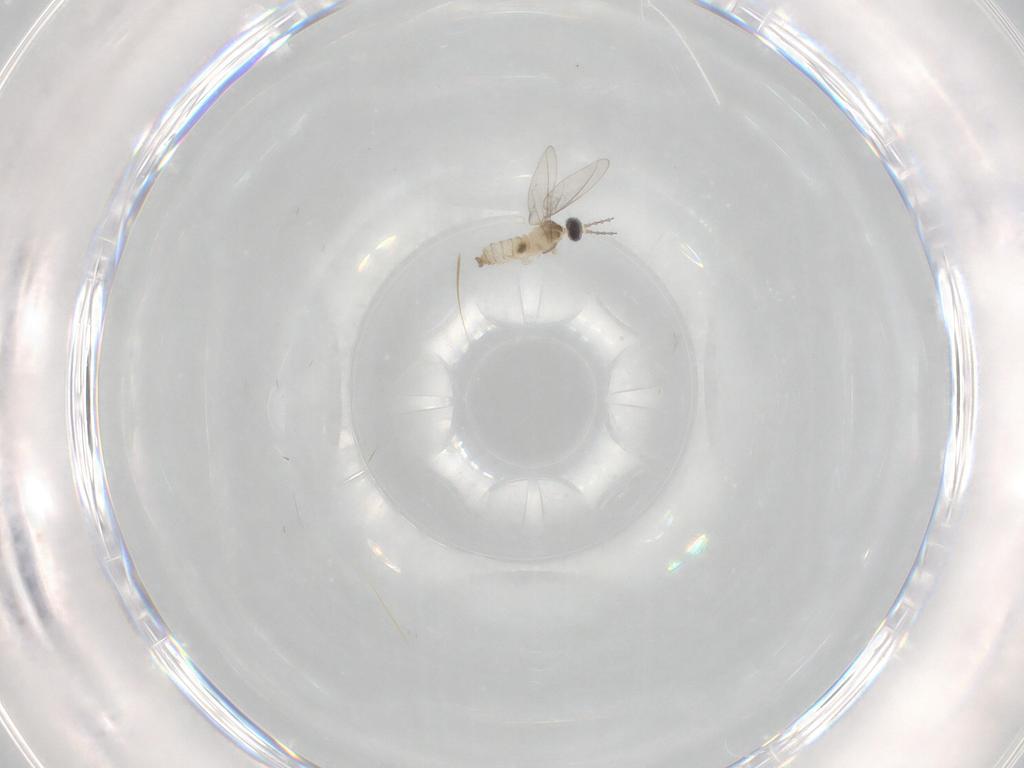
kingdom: Animalia
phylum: Arthropoda
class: Insecta
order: Diptera
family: Cecidomyiidae
